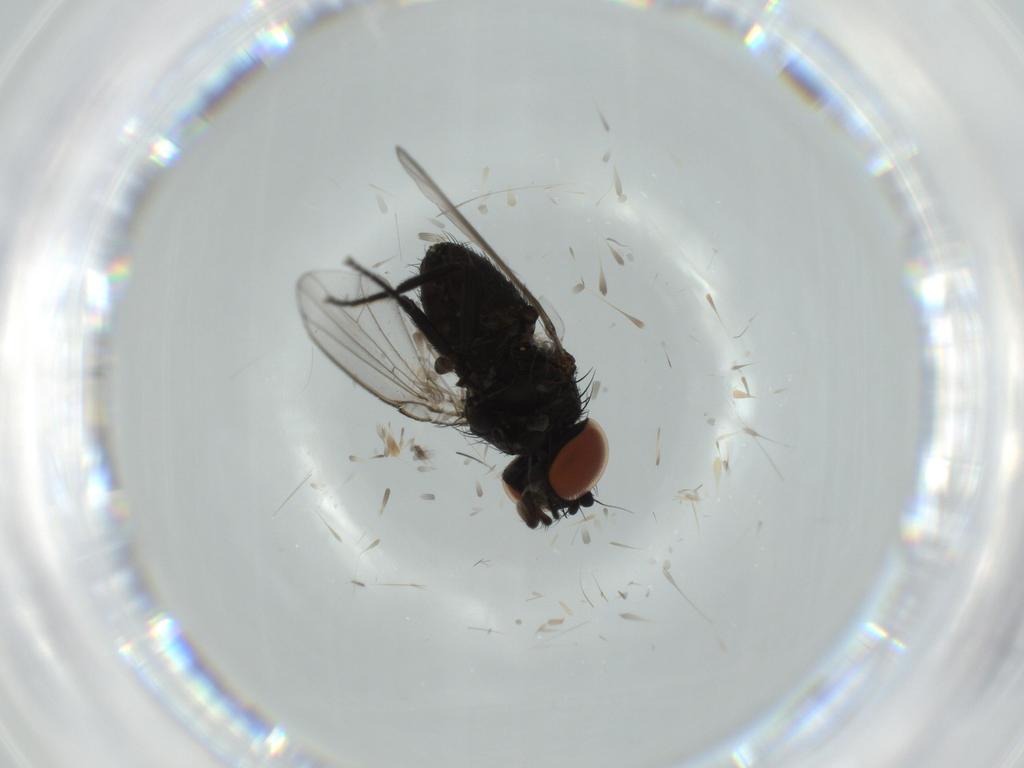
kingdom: Animalia
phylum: Arthropoda
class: Insecta
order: Diptera
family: Milichiidae
